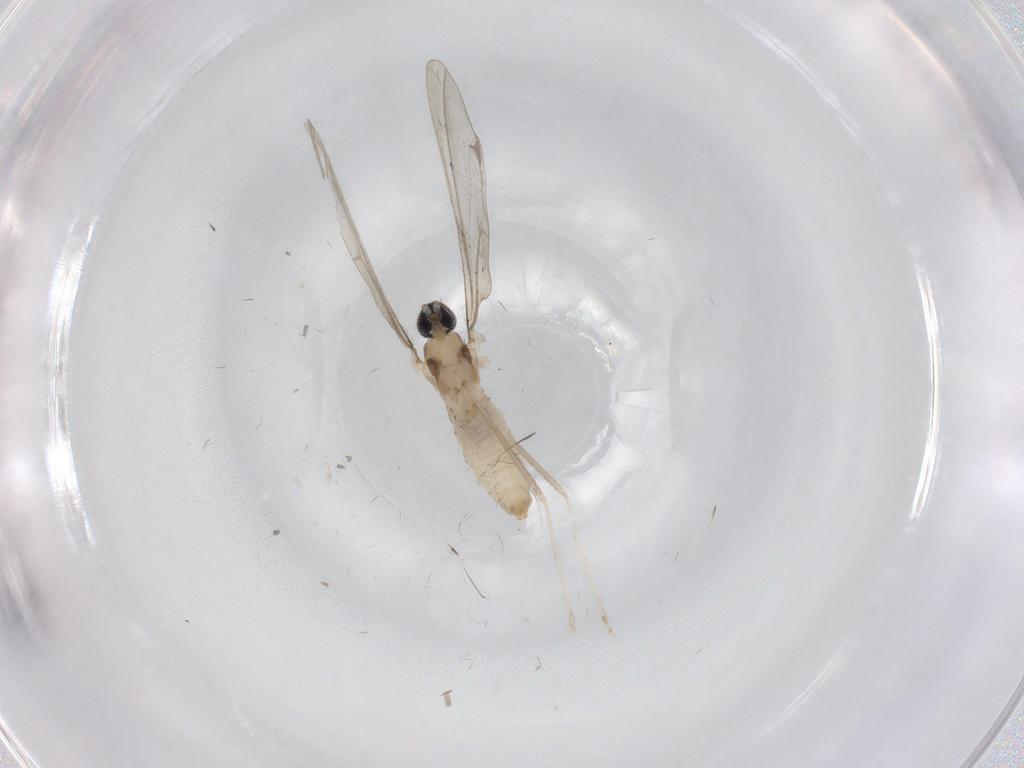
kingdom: Animalia
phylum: Arthropoda
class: Insecta
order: Diptera
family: Cecidomyiidae
